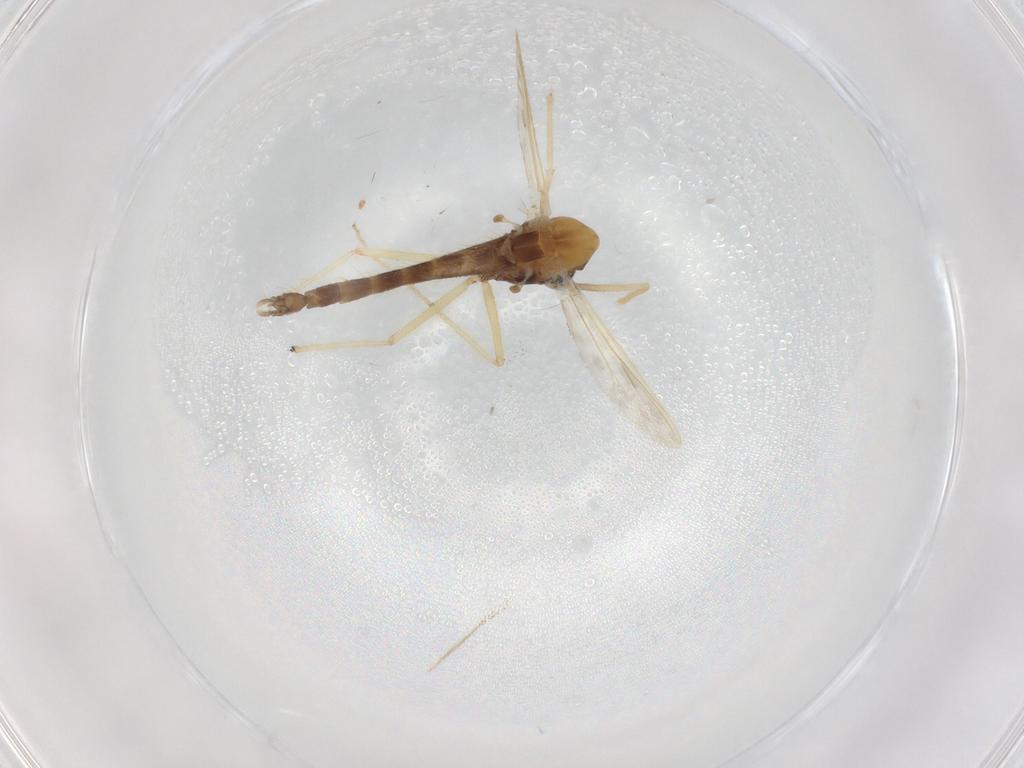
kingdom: Animalia
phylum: Arthropoda
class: Insecta
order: Diptera
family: Chironomidae
